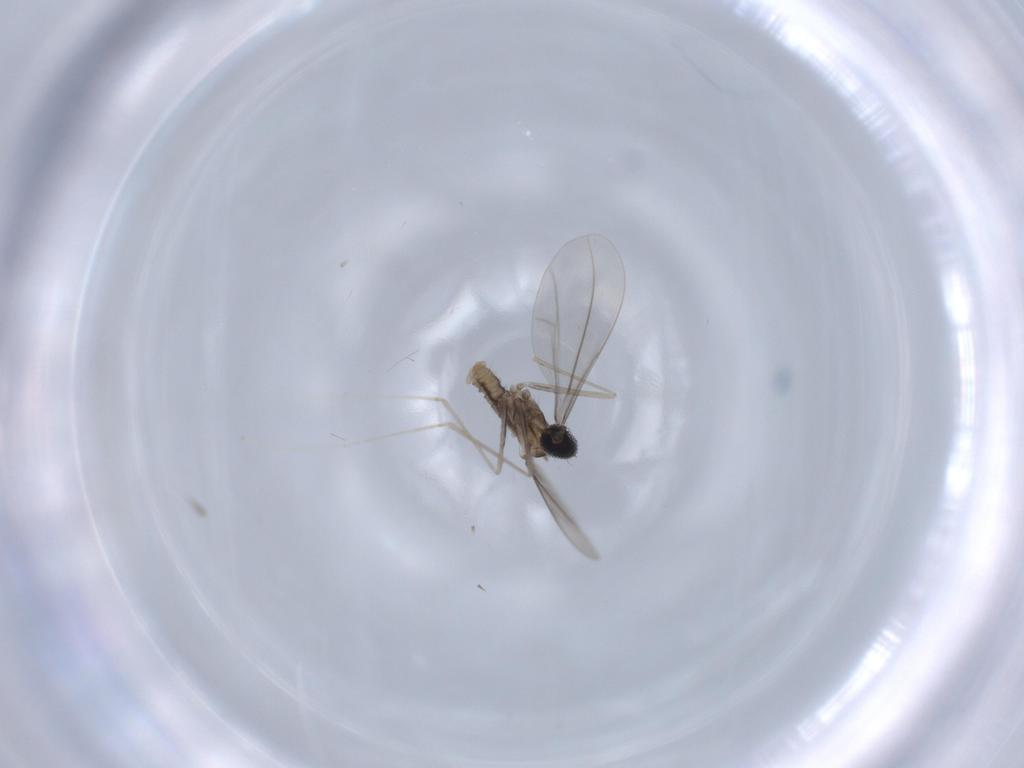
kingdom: Animalia
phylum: Arthropoda
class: Insecta
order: Diptera
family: Cecidomyiidae
